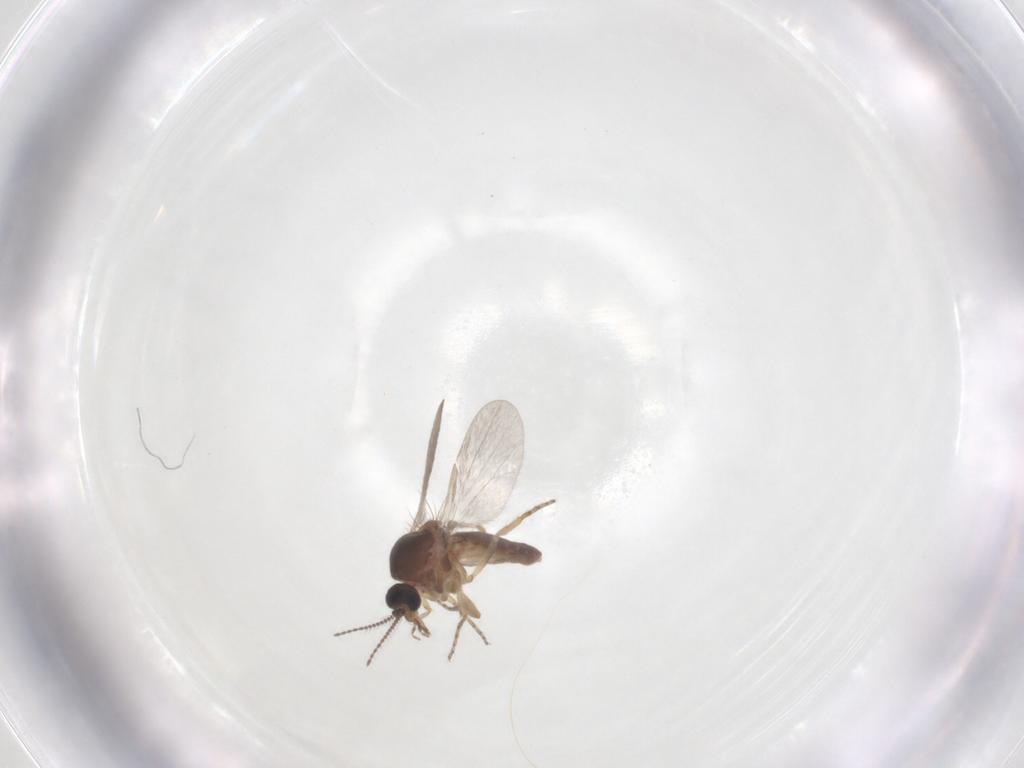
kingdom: Animalia
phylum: Arthropoda
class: Insecta
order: Diptera
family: Ceratopogonidae
